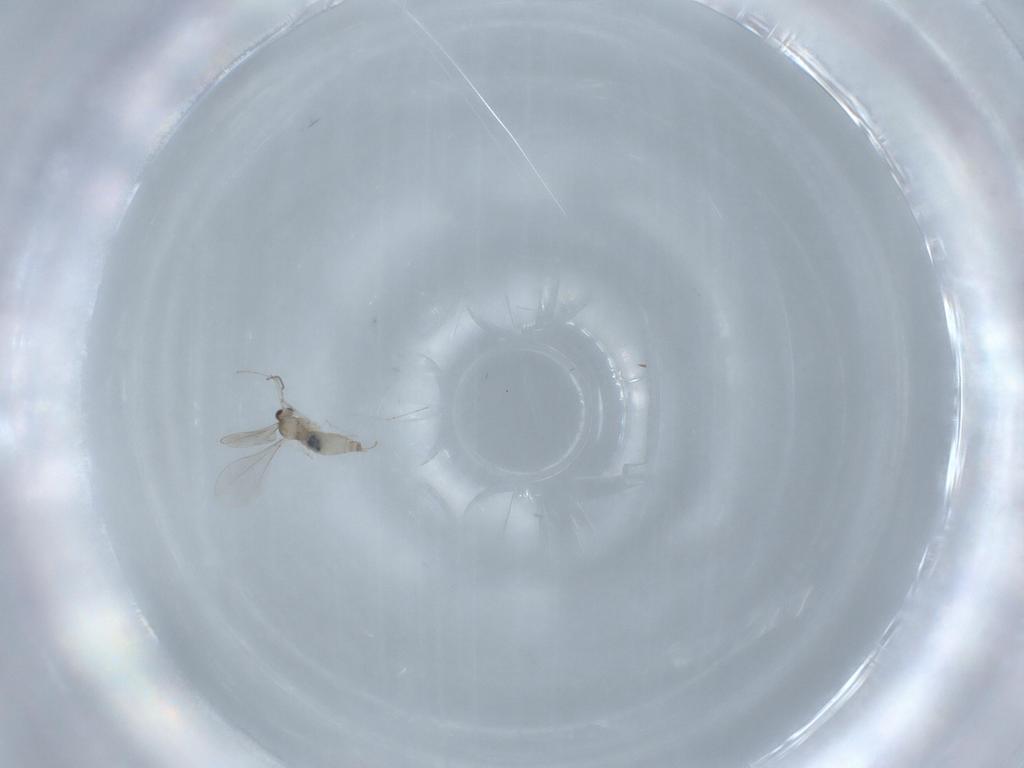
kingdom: Animalia
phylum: Arthropoda
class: Insecta
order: Diptera
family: Cecidomyiidae
